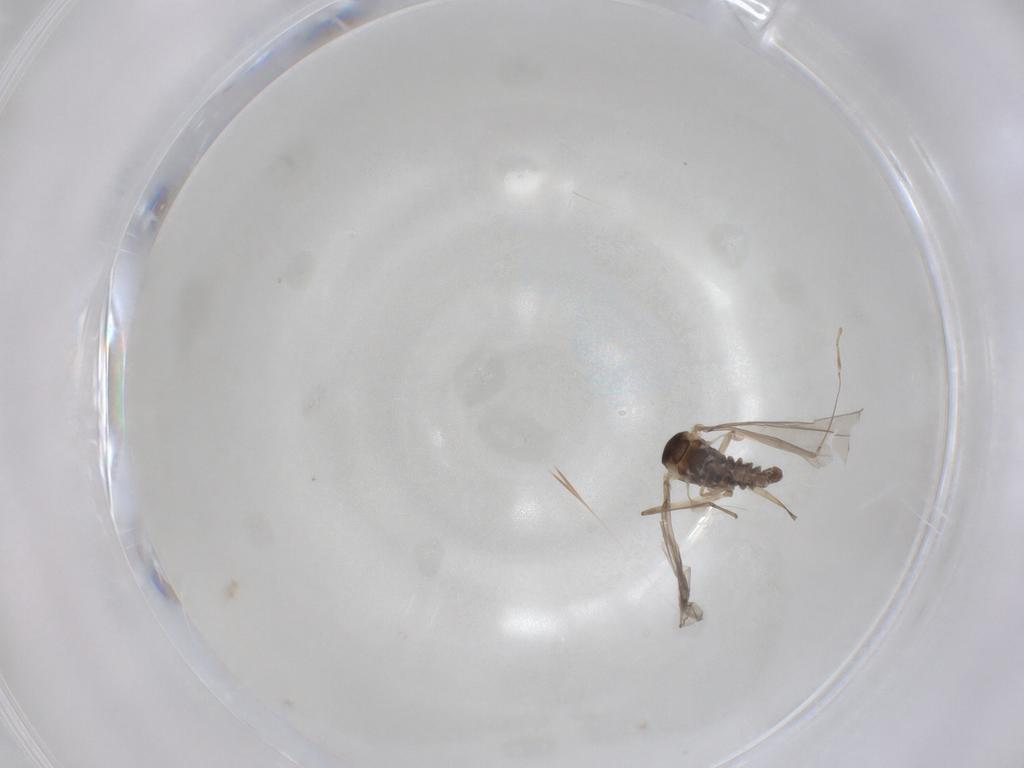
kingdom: Animalia
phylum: Arthropoda
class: Insecta
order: Diptera
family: Cecidomyiidae
